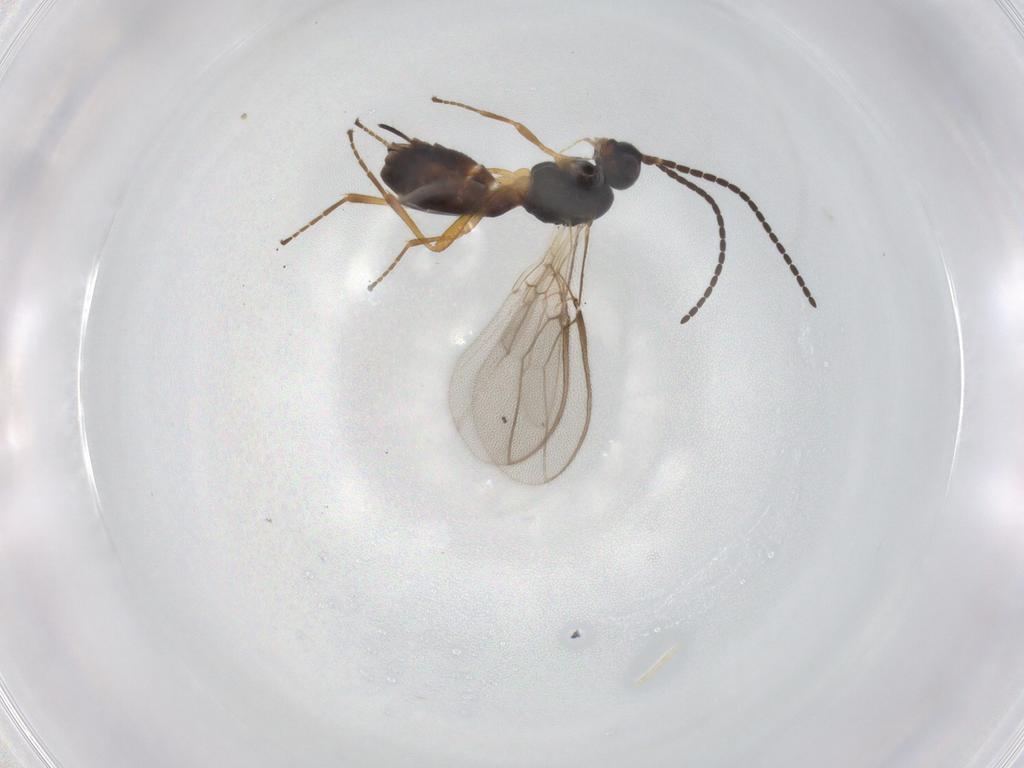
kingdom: Animalia
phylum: Arthropoda
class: Insecta
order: Hymenoptera
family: Braconidae
